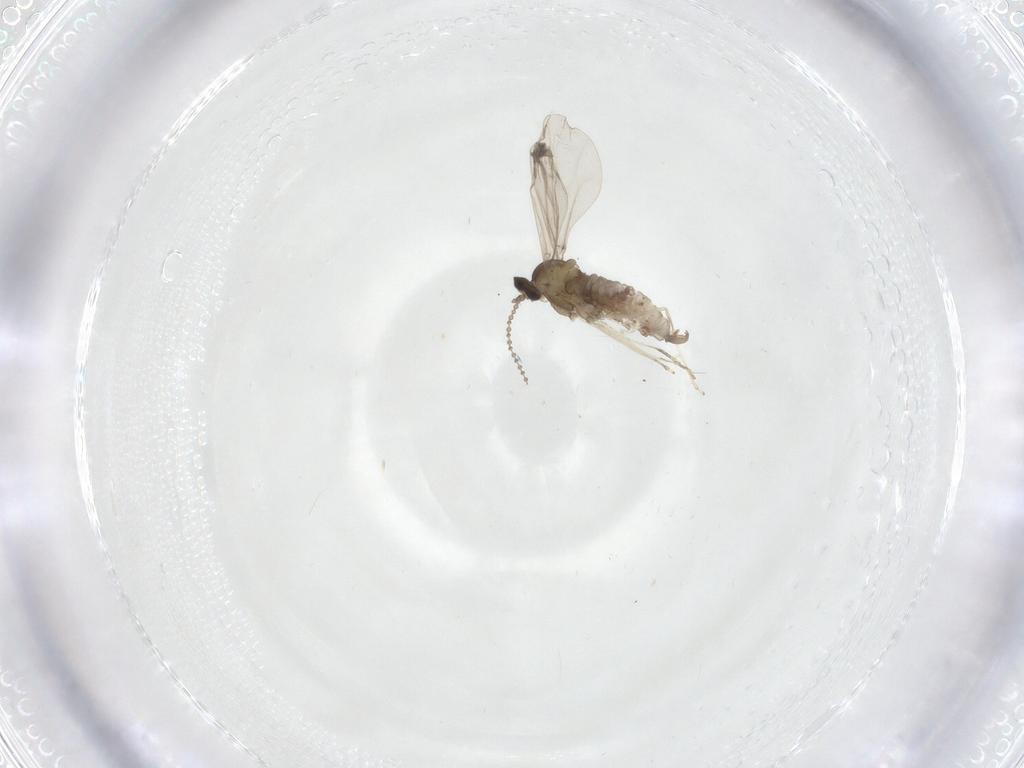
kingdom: Animalia
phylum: Arthropoda
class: Insecta
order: Diptera
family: Cecidomyiidae
